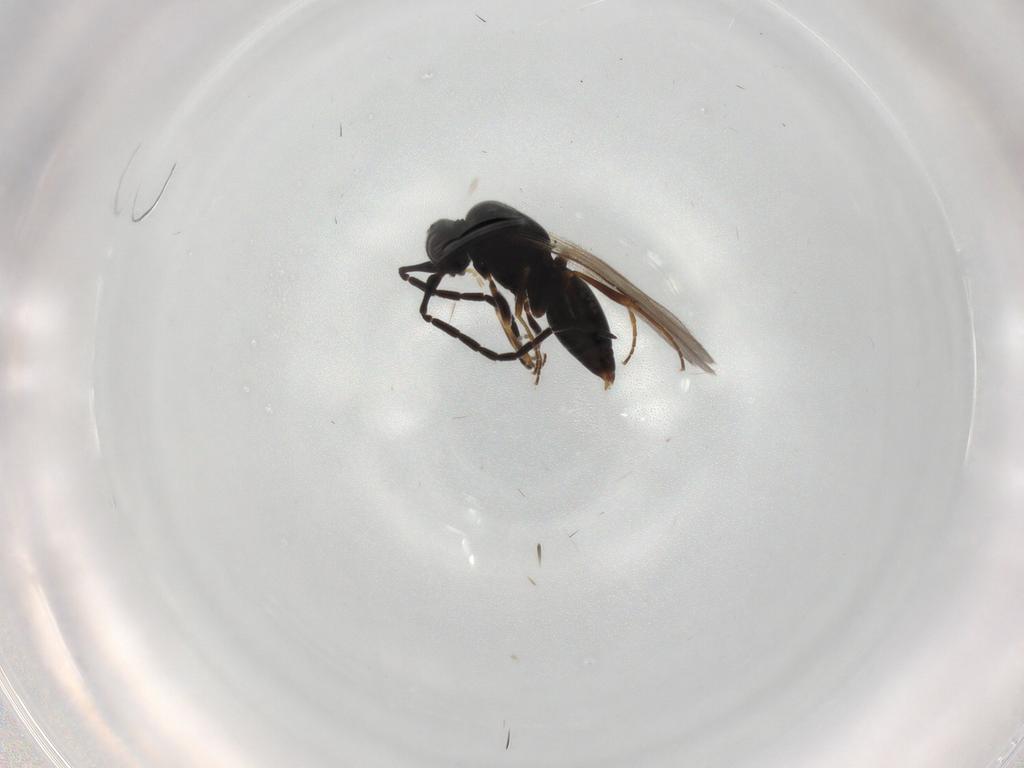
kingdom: Animalia
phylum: Arthropoda
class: Insecta
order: Hymenoptera
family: Ceraphronidae
